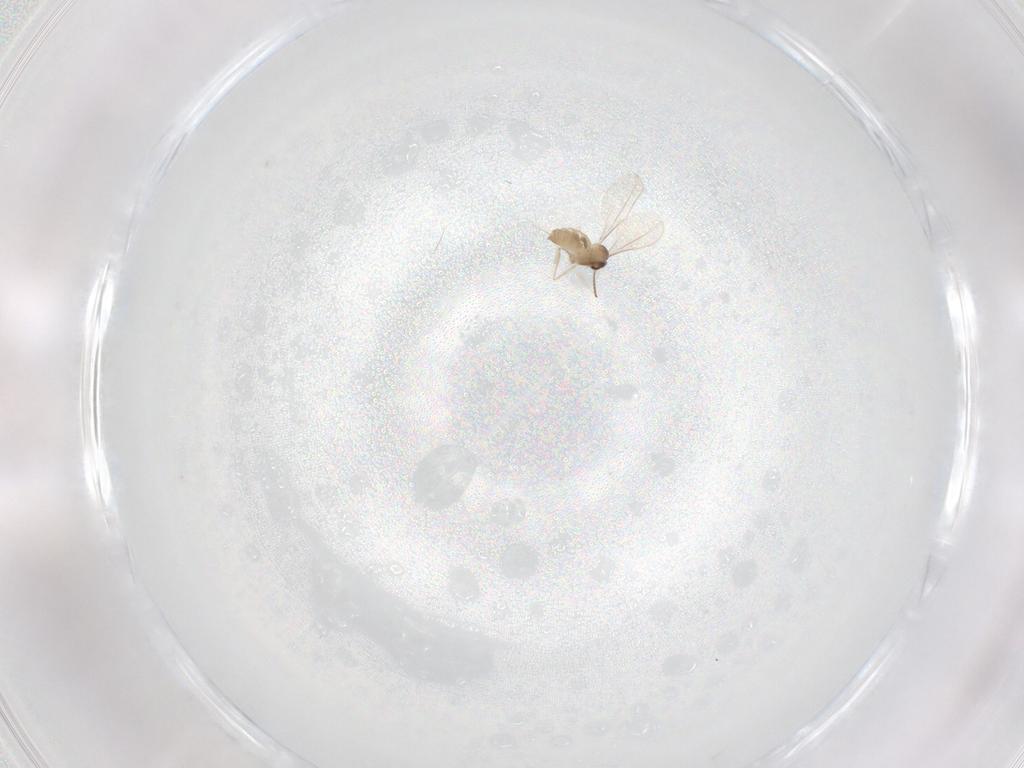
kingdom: Animalia
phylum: Arthropoda
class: Insecta
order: Diptera
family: Cecidomyiidae
